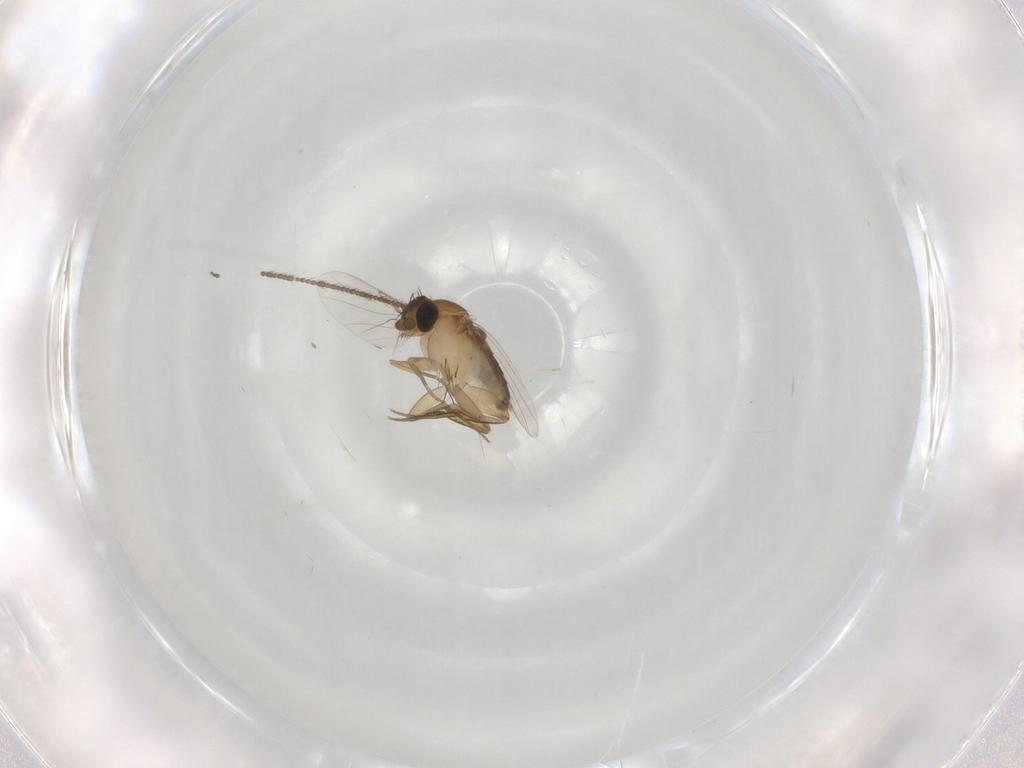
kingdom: Animalia
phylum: Arthropoda
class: Insecta
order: Diptera
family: Phoridae
